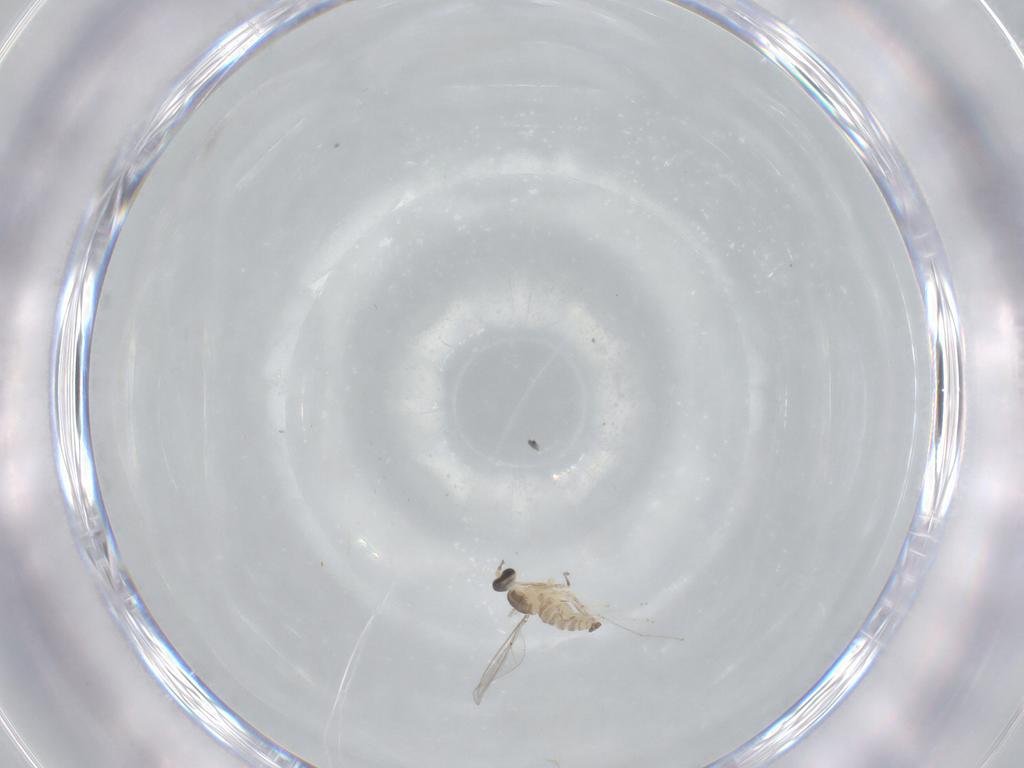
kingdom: Animalia
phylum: Arthropoda
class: Insecta
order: Diptera
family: Cecidomyiidae
